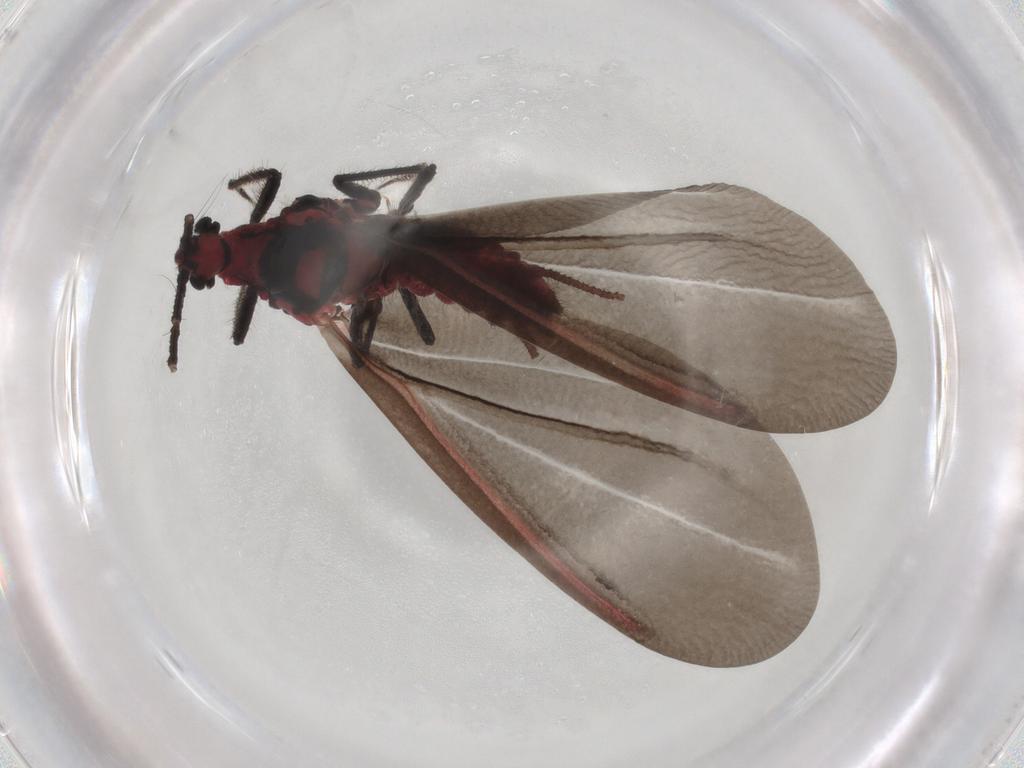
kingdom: Animalia
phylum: Arthropoda
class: Insecta
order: Hemiptera
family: Monophlebidae
